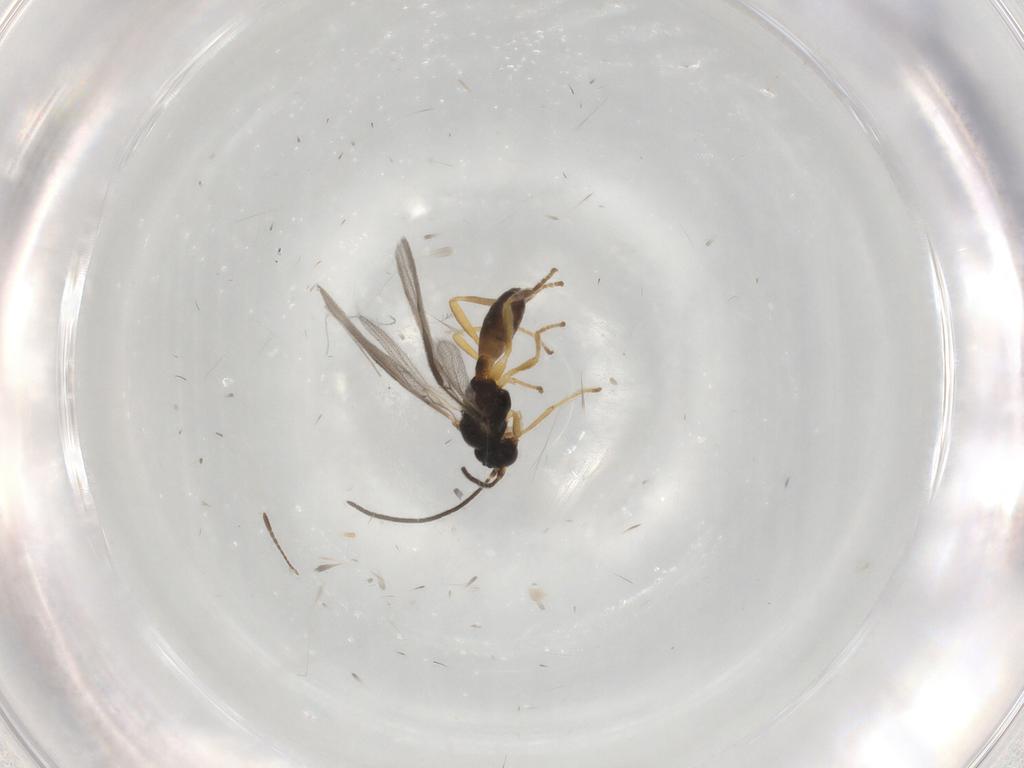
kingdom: Animalia
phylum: Arthropoda
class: Insecta
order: Hymenoptera
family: Braconidae
